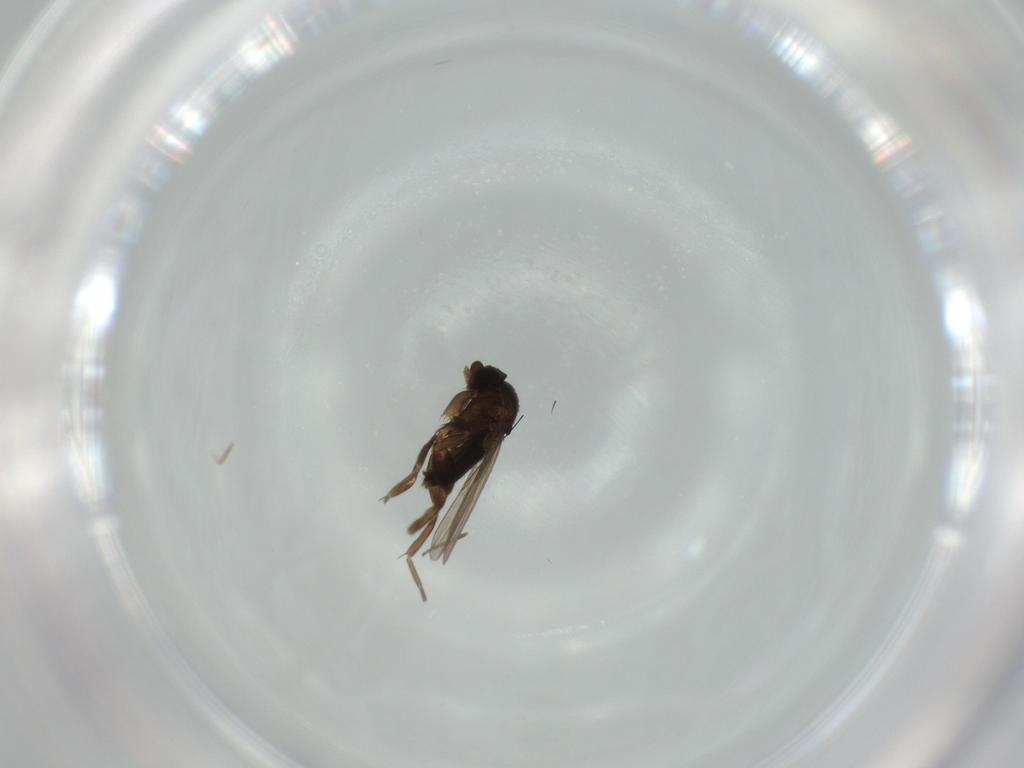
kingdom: Animalia
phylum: Arthropoda
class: Insecta
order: Diptera
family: Phoridae
